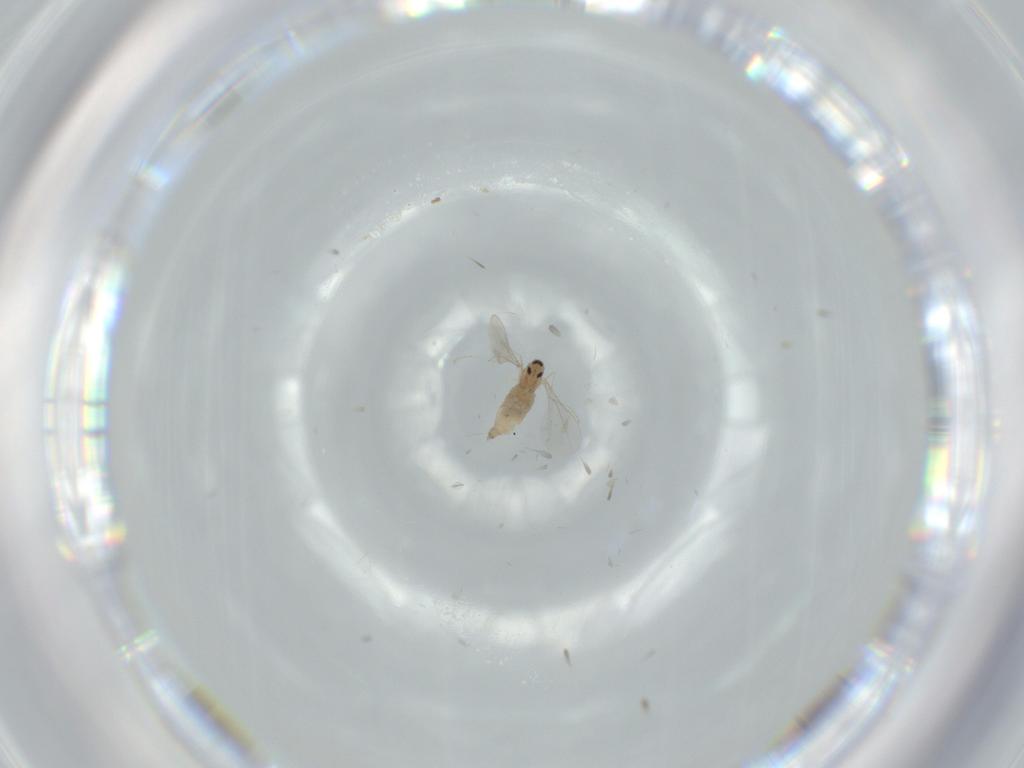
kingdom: Animalia
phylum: Arthropoda
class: Insecta
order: Diptera
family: Cecidomyiidae
